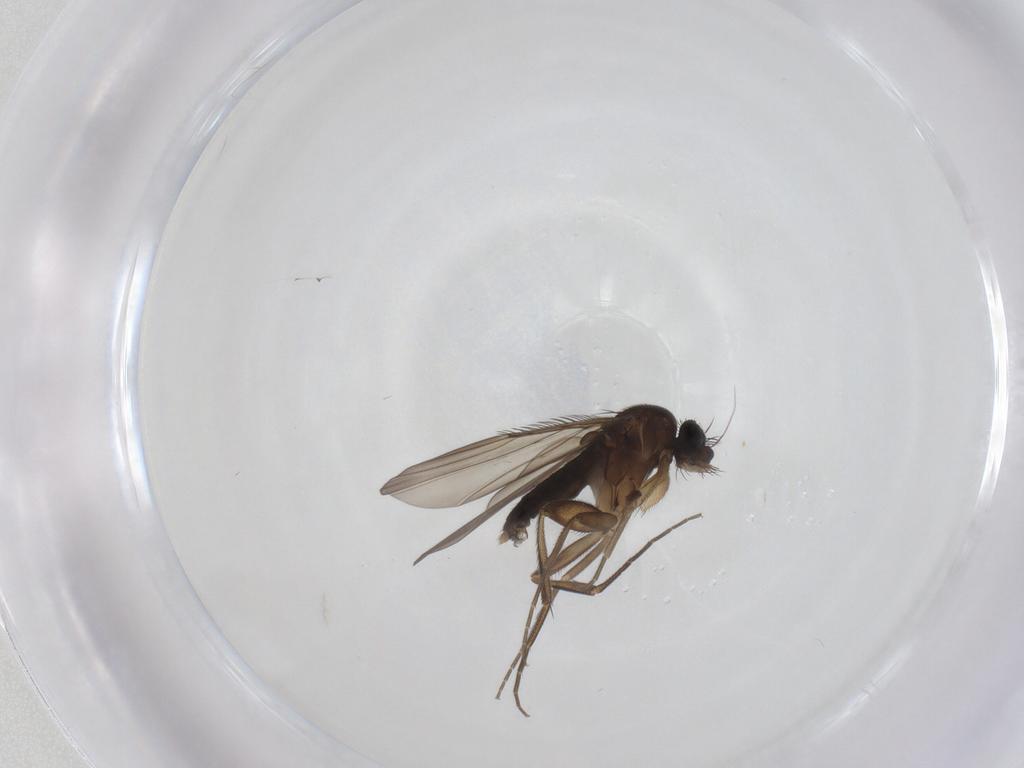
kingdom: Animalia
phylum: Arthropoda
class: Insecta
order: Diptera
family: Phoridae
